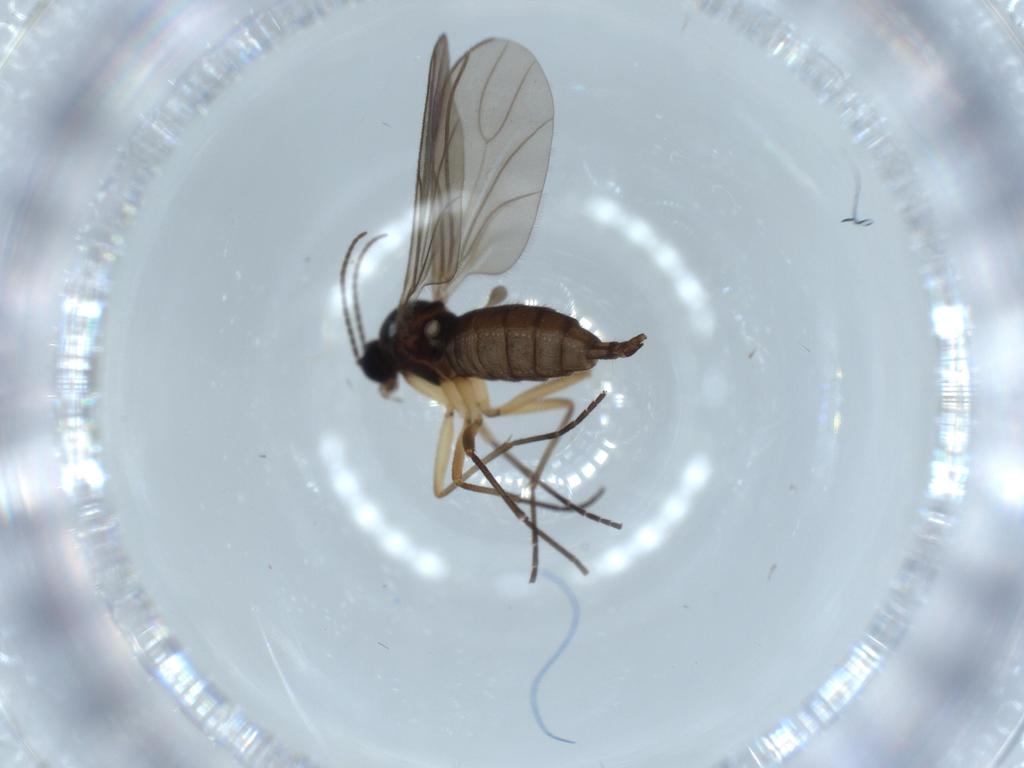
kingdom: Animalia
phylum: Arthropoda
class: Insecta
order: Diptera
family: Sciaridae
